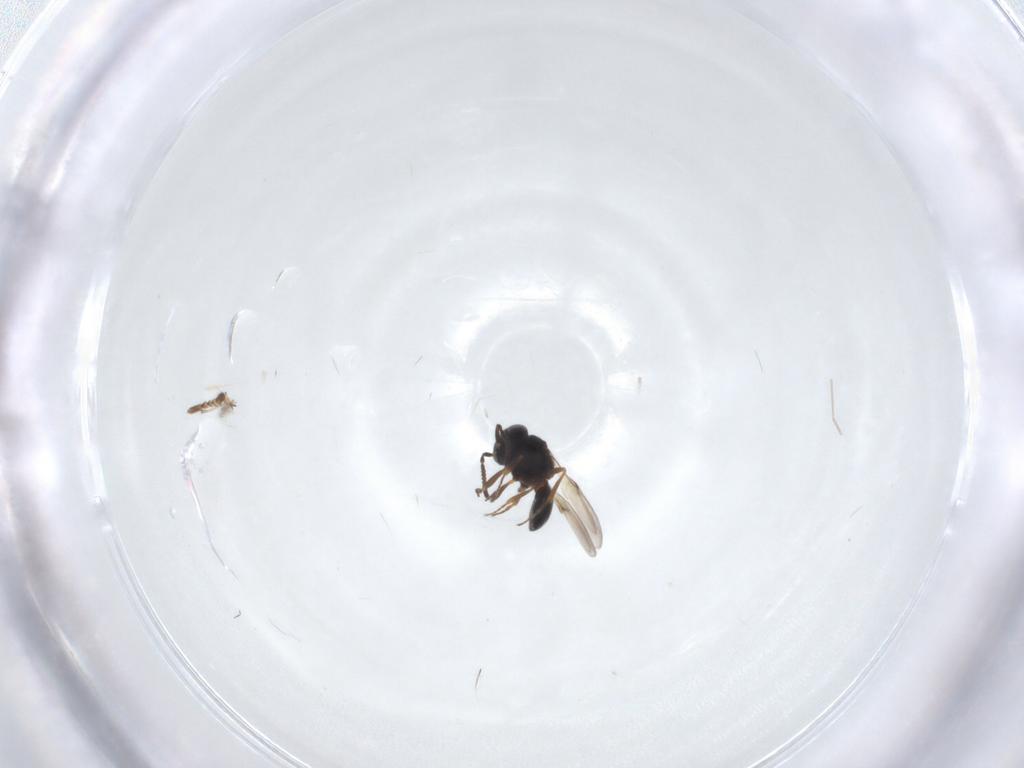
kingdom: Animalia
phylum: Arthropoda
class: Arachnida
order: Araneae
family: Pholcidae
